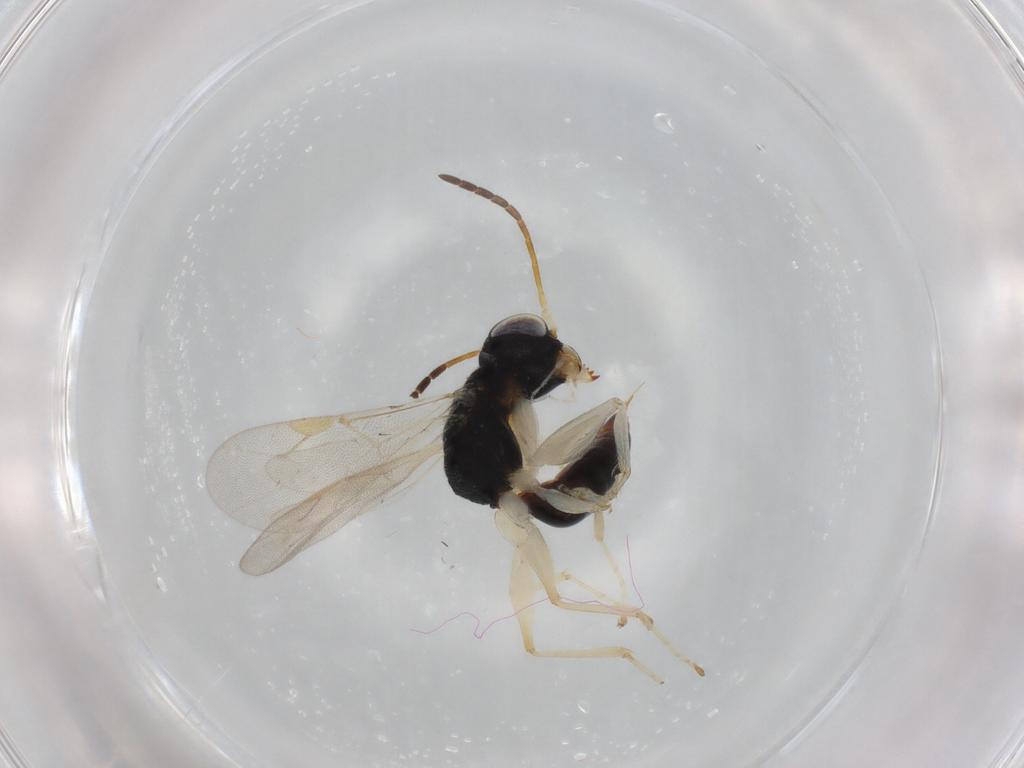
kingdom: Animalia
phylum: Arthropoda
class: Insecta
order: Hymenoptera
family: Dryinidae
